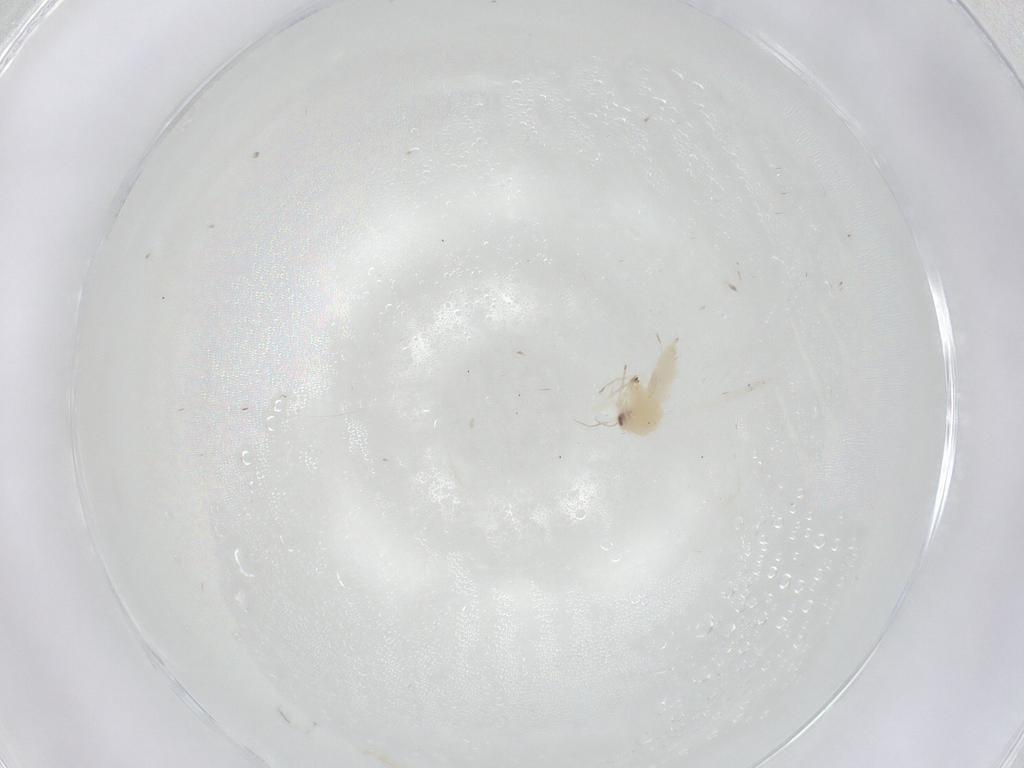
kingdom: Animalia
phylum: Arthropoda
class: Insecta
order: Hemiptera
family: Aleyrodidae
